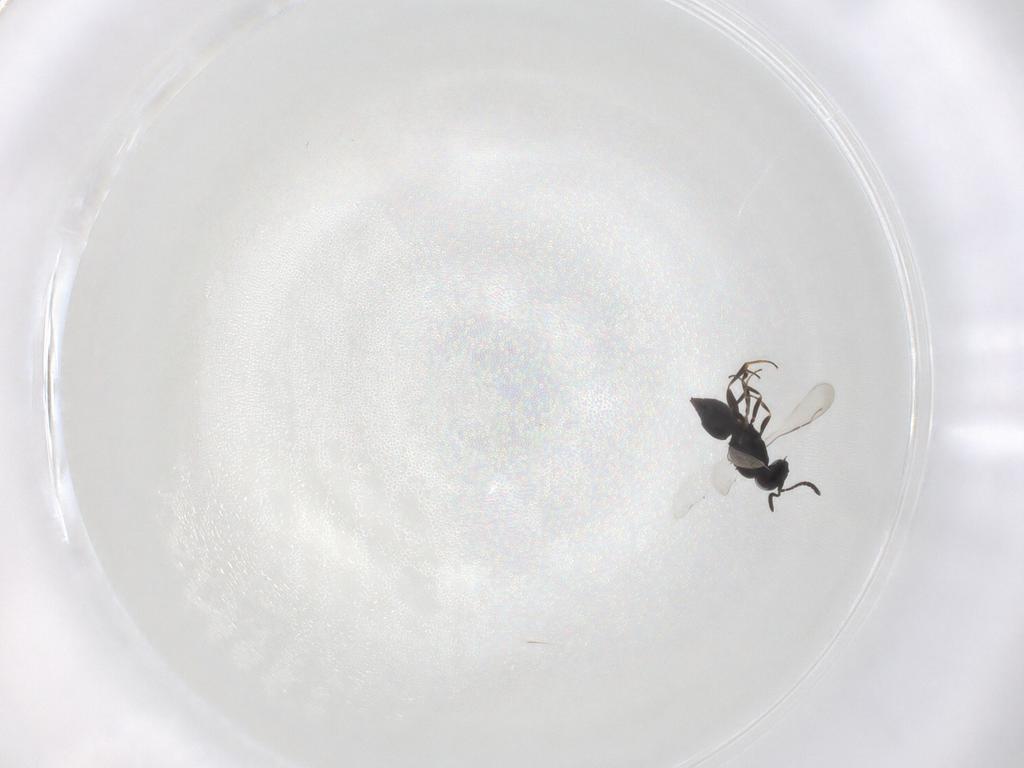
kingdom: Animalia
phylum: Arthropoda
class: Insecta
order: Hymenoptera
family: Ceraphronidae
